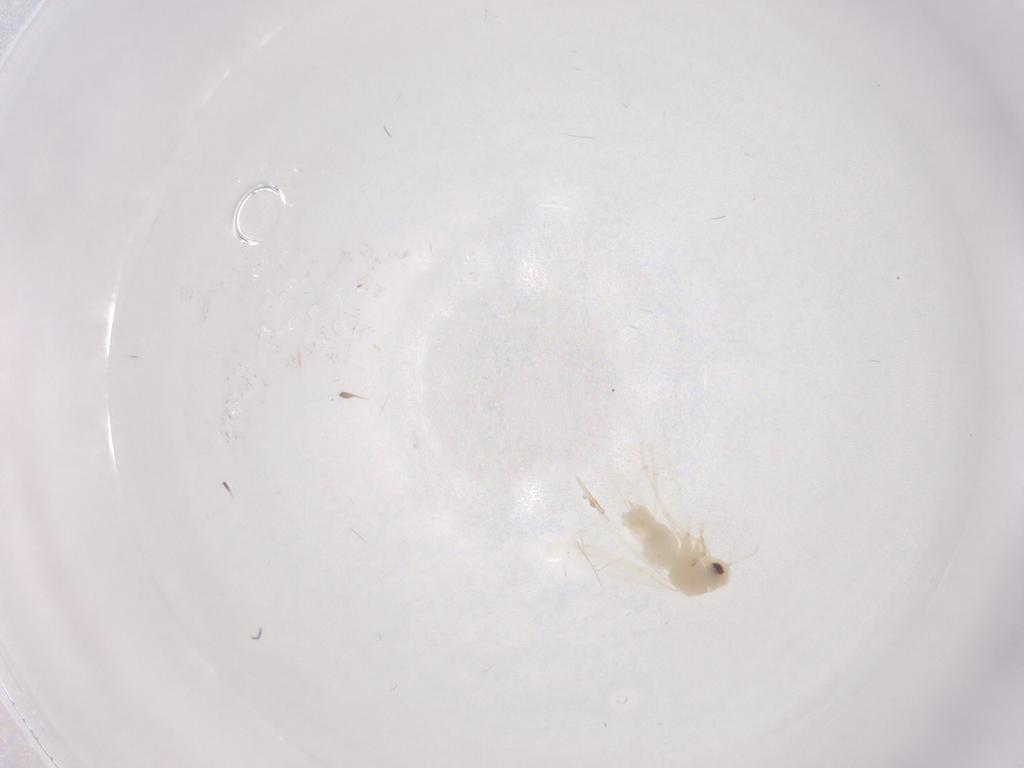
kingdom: Animalia
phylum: Arthropoda
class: Insecta
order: Hemiptera
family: Aleyrodidae
